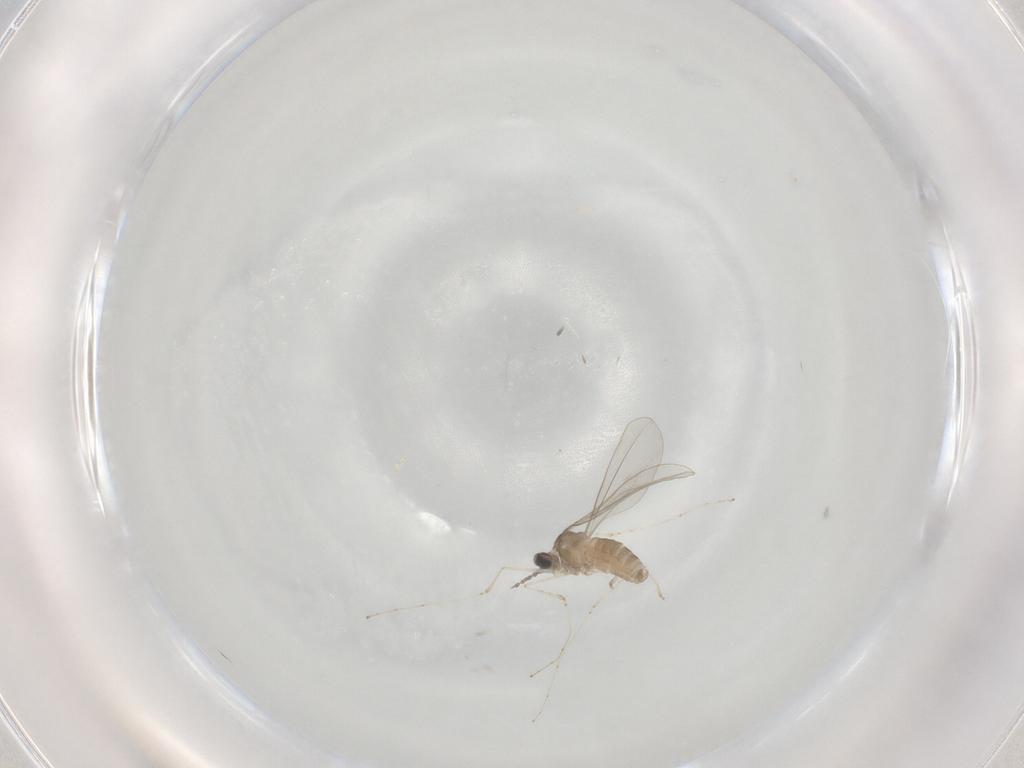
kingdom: Animalia
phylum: Arthropoda
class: Insecta
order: Diptera
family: Cecidomyiidae
